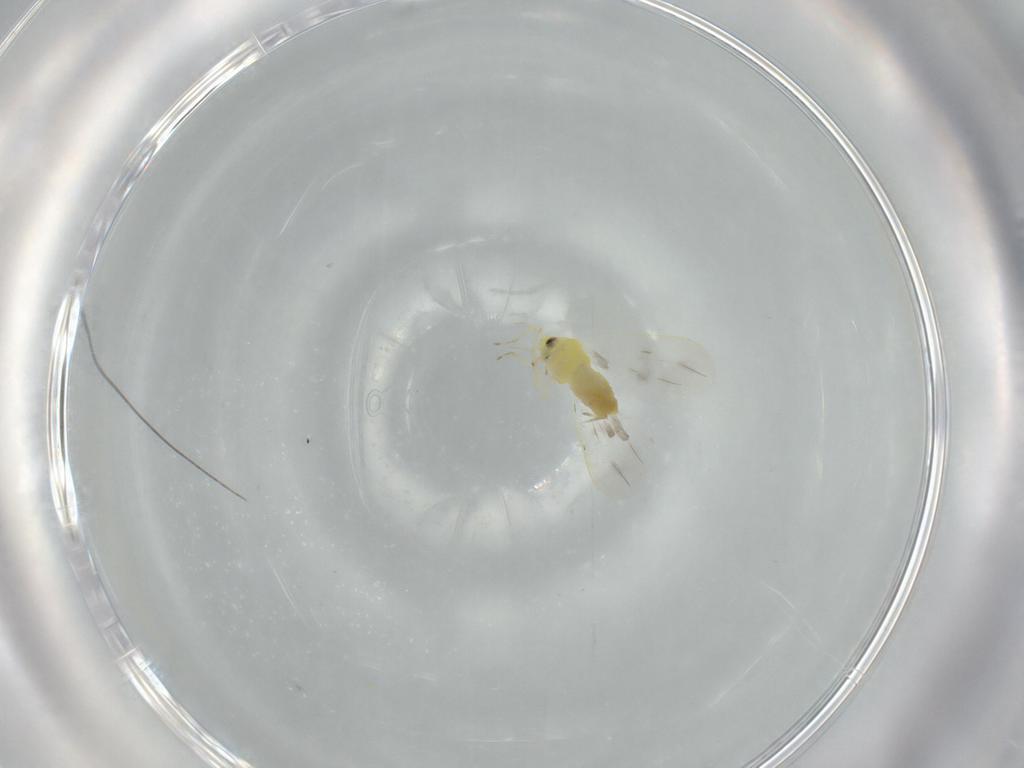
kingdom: Animalia
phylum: Arthropoda
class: Insecta
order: Hemiptera
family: Aleyrodidae
